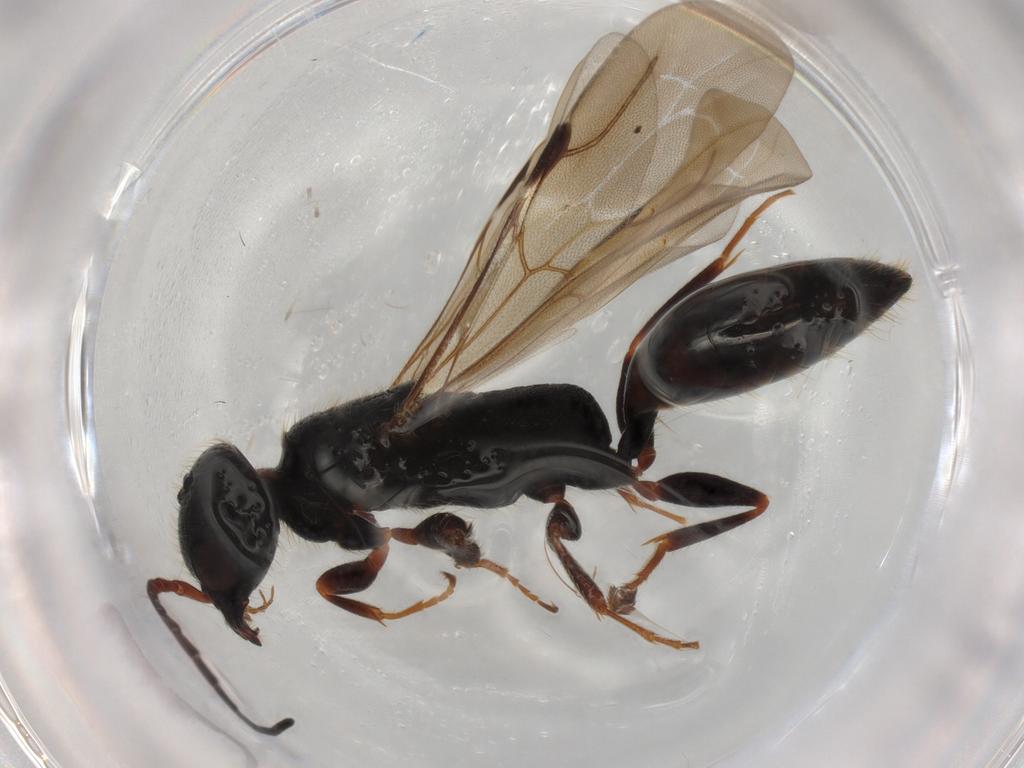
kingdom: Animalia
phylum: Arthropoda
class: Insecta
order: Hymenoptera
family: Bethylidae
